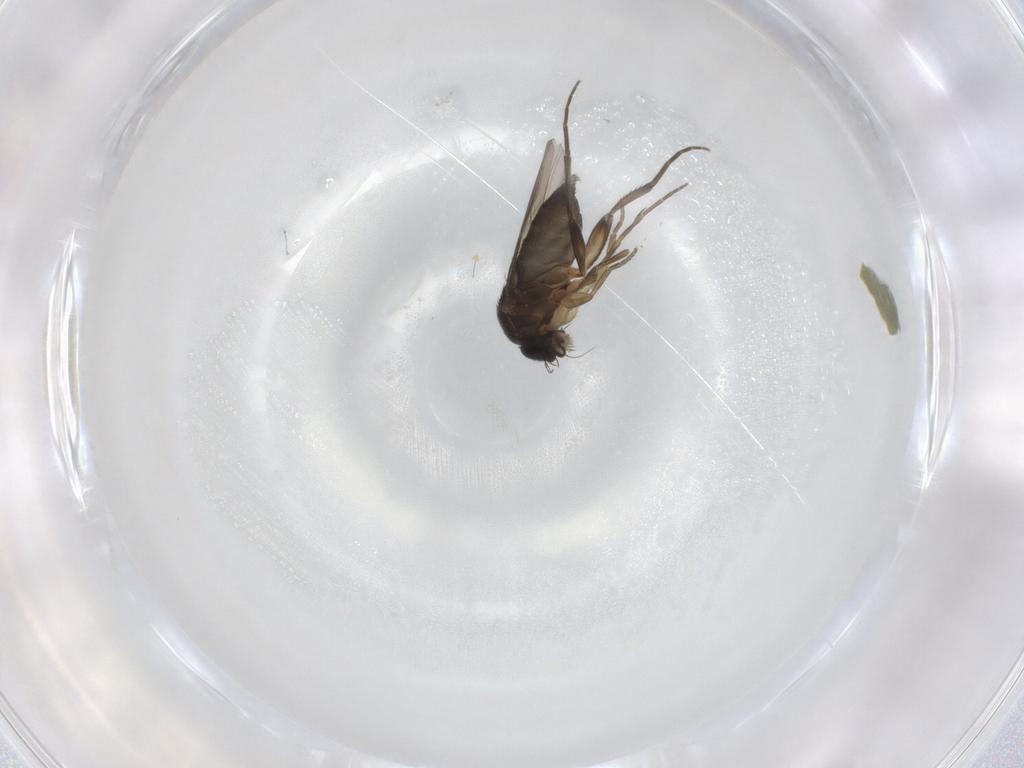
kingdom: Animalia
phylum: Arthropoda
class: Insecta
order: Diptera
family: Phoridae
